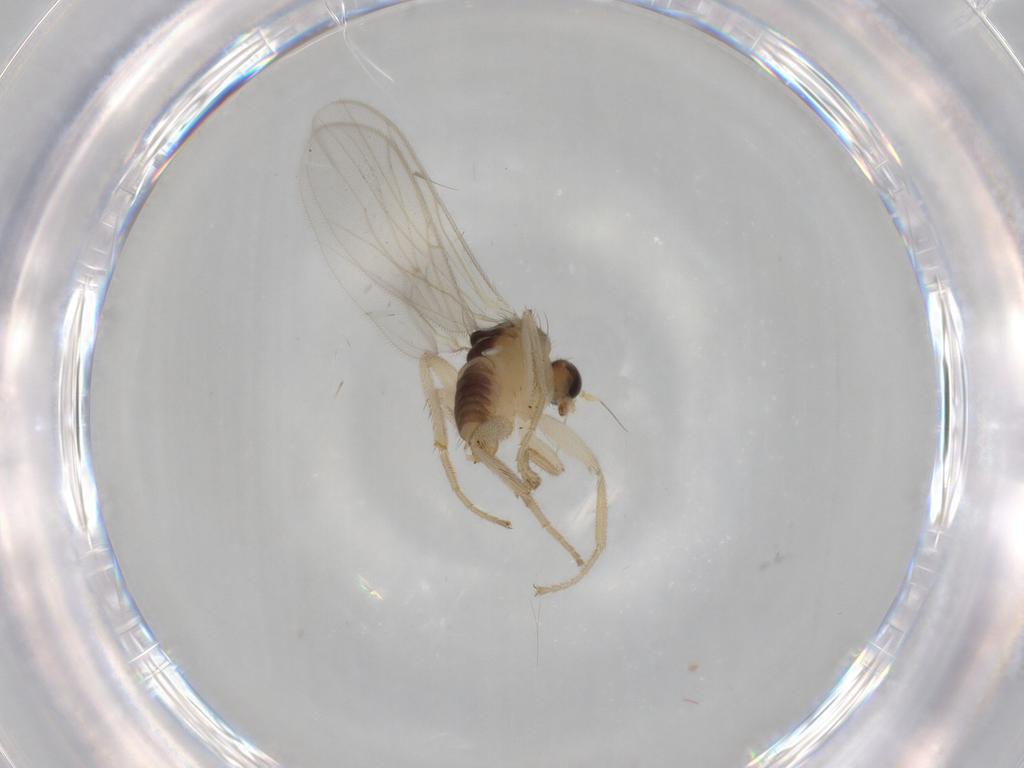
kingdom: Animalia
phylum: Arthropoda
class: Insecta
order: Diptera
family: Hybotidae
